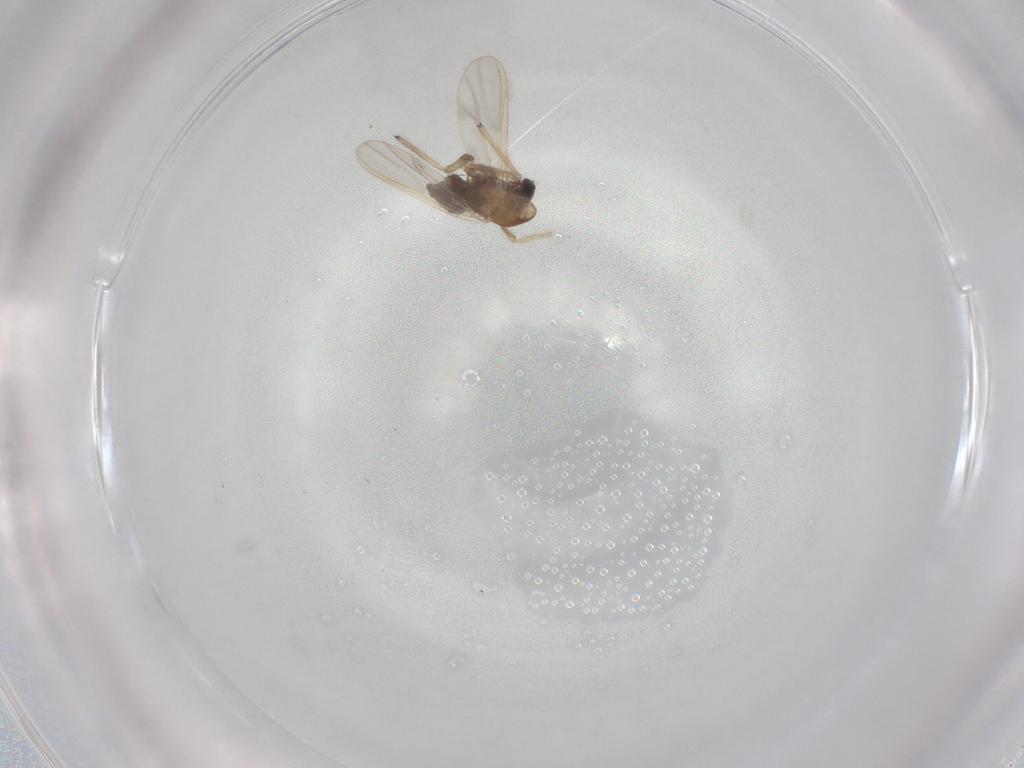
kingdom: Animalia
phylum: Arthropoda
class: Insecta
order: Diptera
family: Chironomidae
